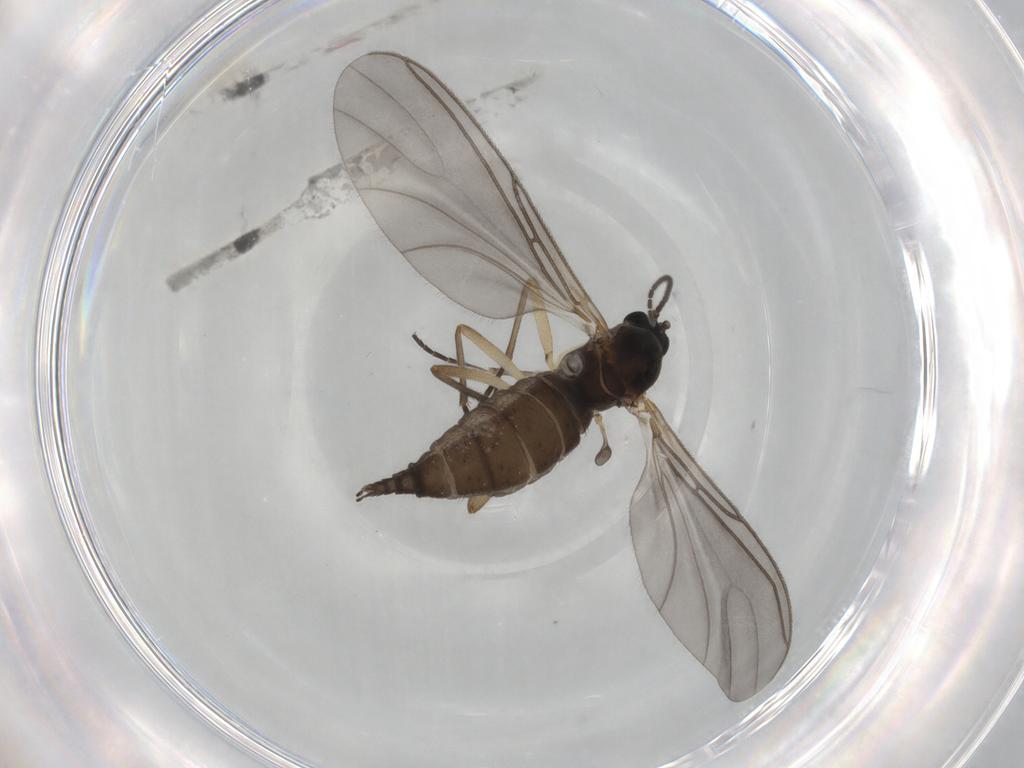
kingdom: Animalia
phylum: Arthropoda
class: Insecta
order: Diptera
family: Sciaridae
